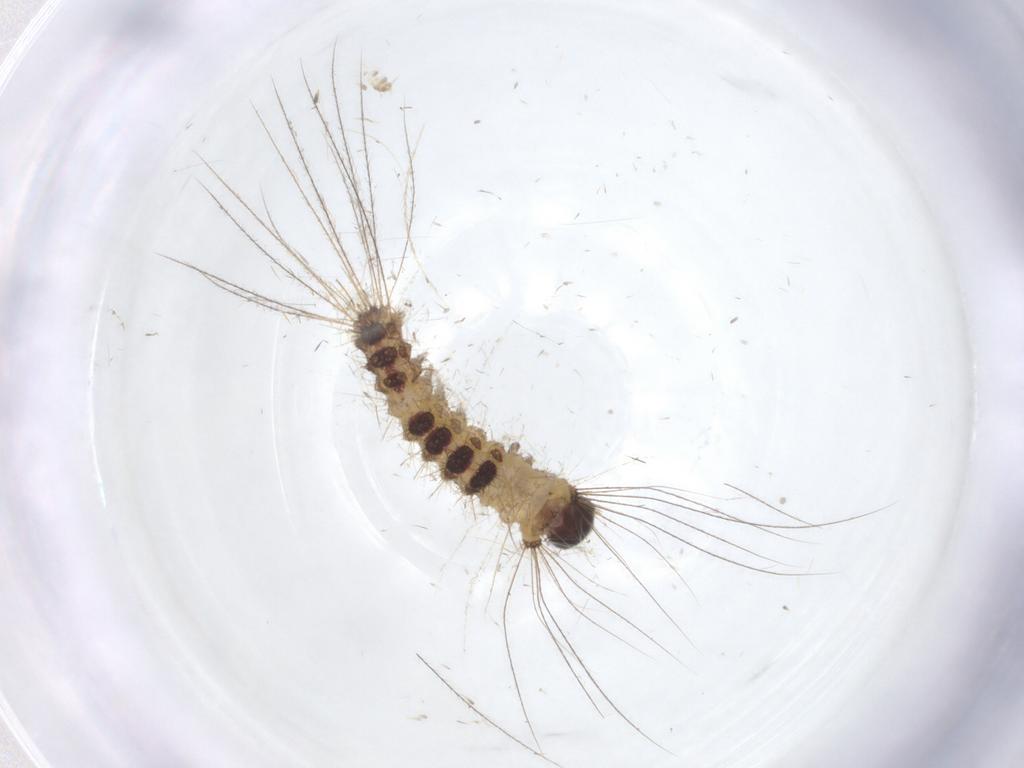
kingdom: Animalia
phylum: Arthropoda
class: Insecta
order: Lepidoptera
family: Erebidae
